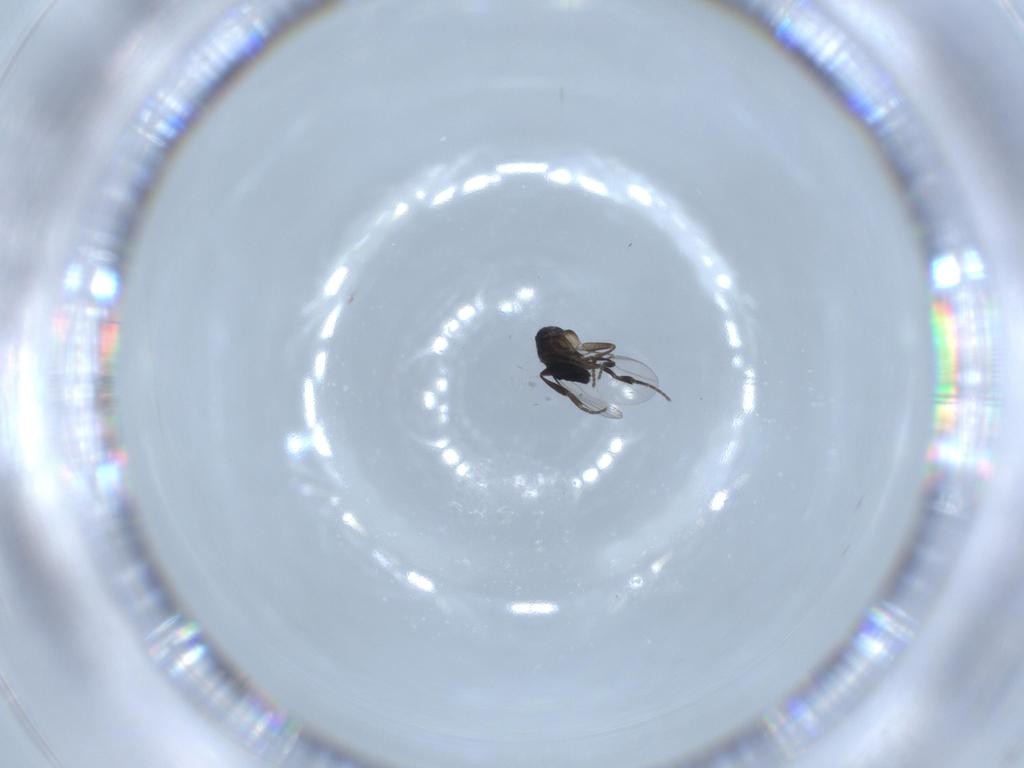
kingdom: Animalia
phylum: Arthropoda
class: Insecta
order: Diptera
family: Phoridae
